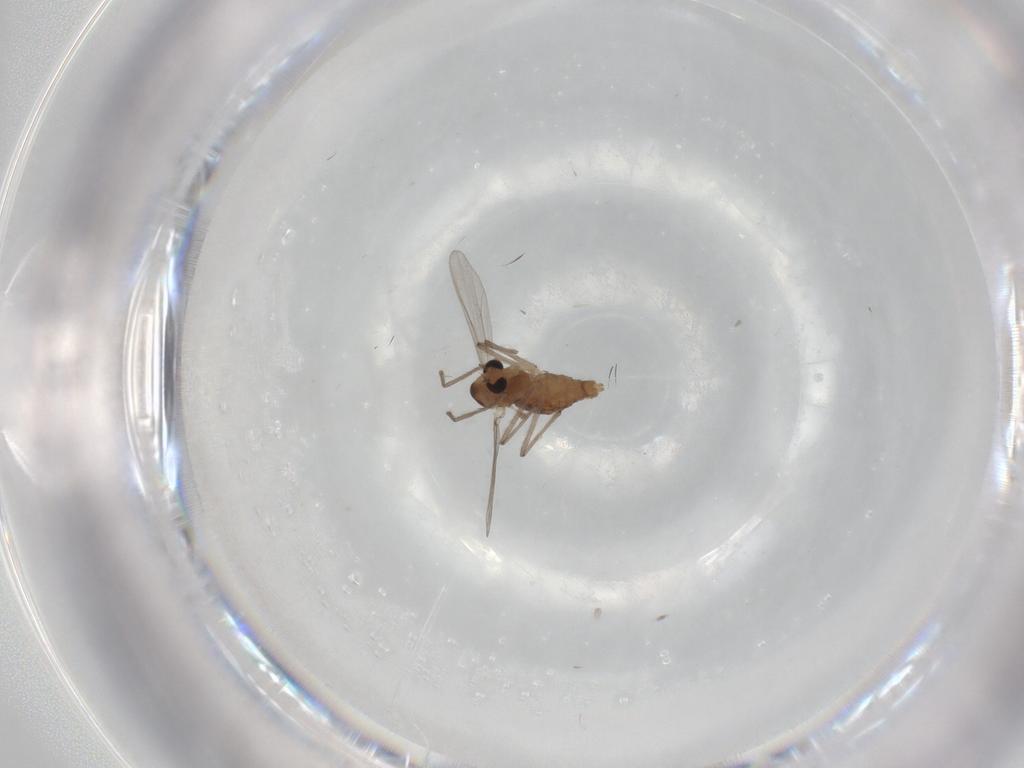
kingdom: Animalia
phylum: Arthropoda
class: Insecta
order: Diptera
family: Chironomidae
